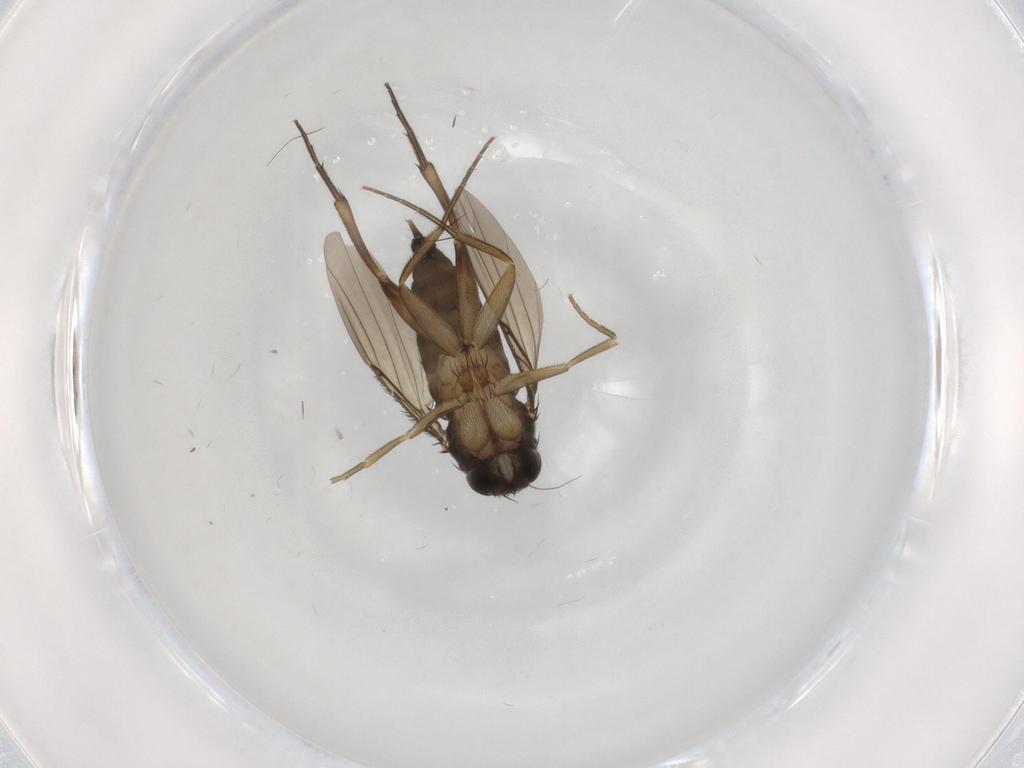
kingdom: Animalia
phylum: Arthropoda
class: Insecta
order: Diptera
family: Phoridae
